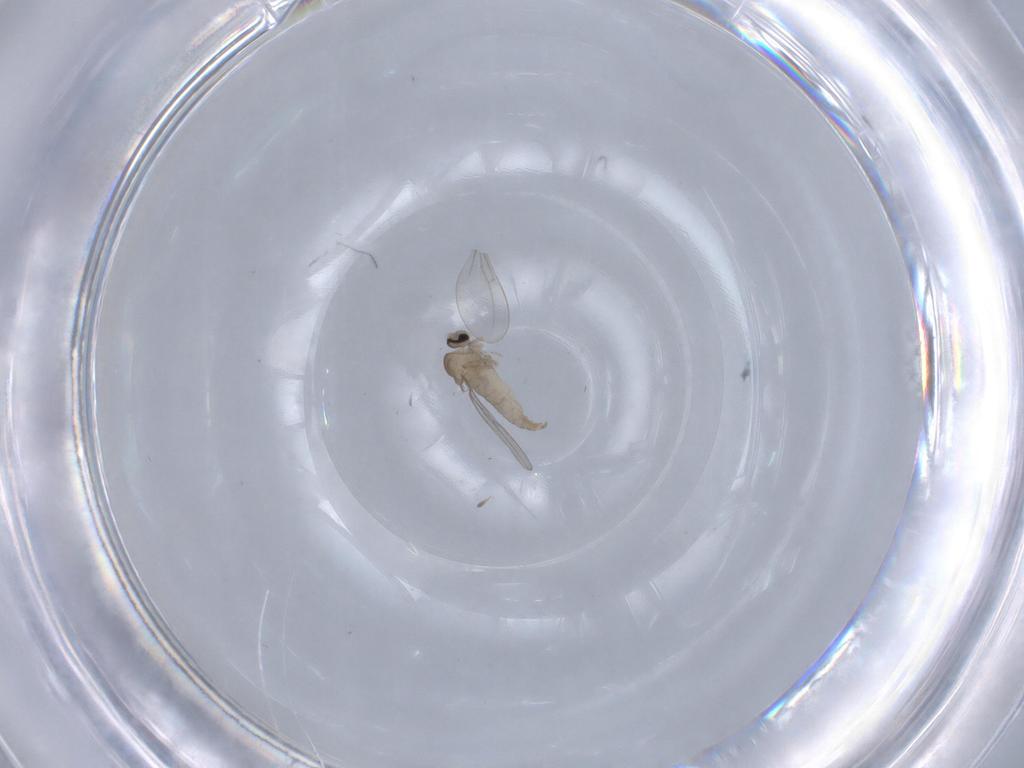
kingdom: Animalia
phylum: Arthropoda
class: Insecta
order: Diptera
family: Cecidomyiidae
